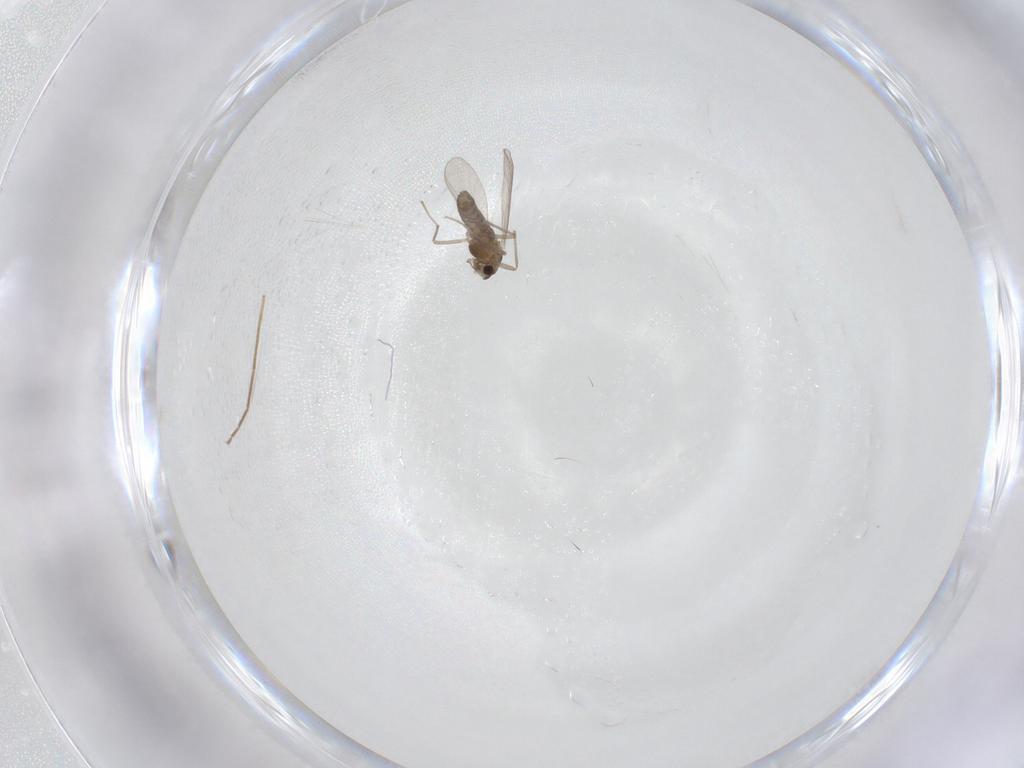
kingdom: Animalia
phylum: Arthropoda
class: Insecta
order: Diptera
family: Chironomidae
